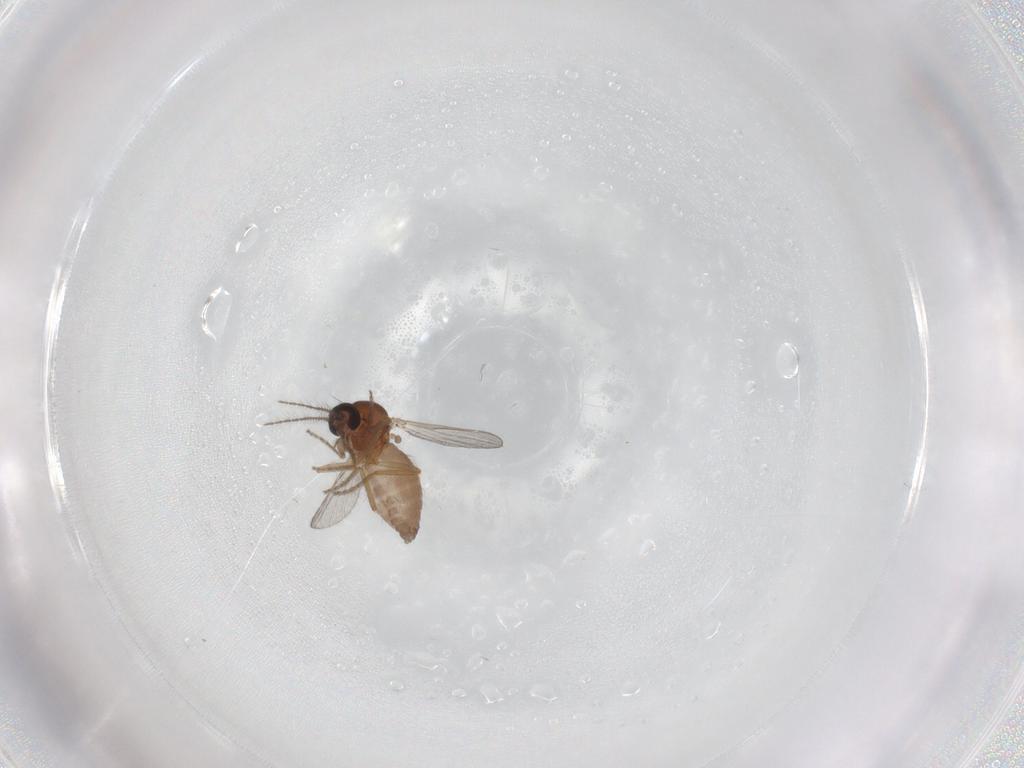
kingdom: Animalia
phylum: Arthropoda
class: Insecta
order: Diptera
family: Ceratopogonidae
